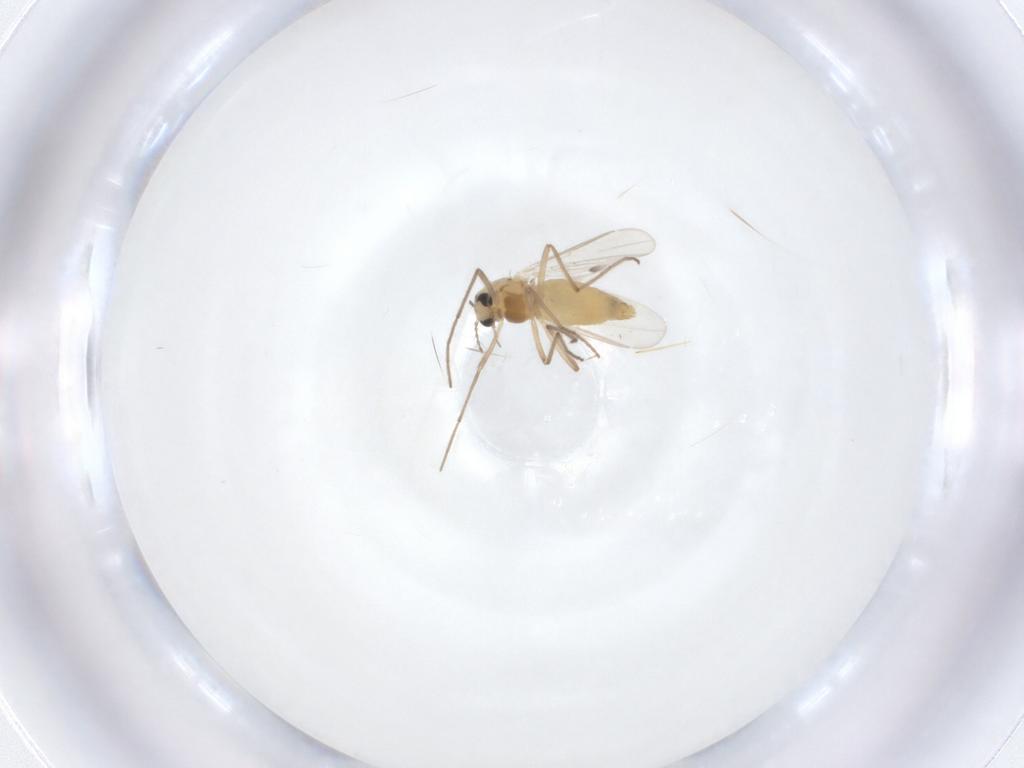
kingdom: Animalia
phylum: Arthropoda
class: Insecta
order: Diptera
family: Chironomidae
